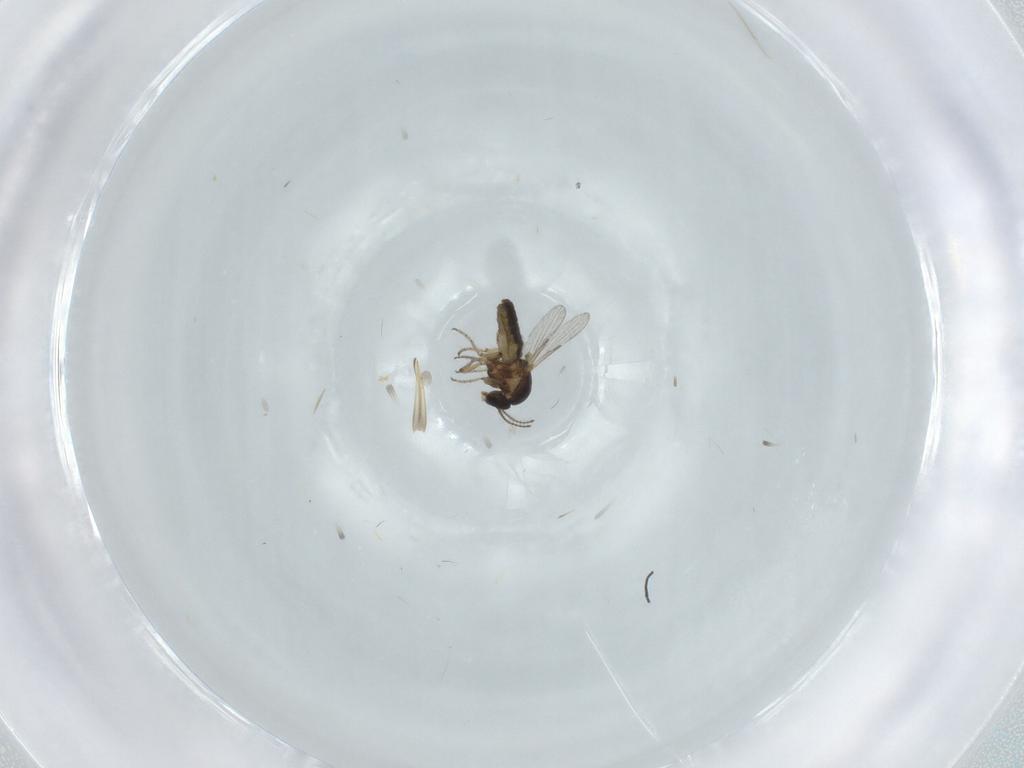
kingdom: Animalia
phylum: Arthropoda
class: Insecta
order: Diptera
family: Ceratopogonidae
